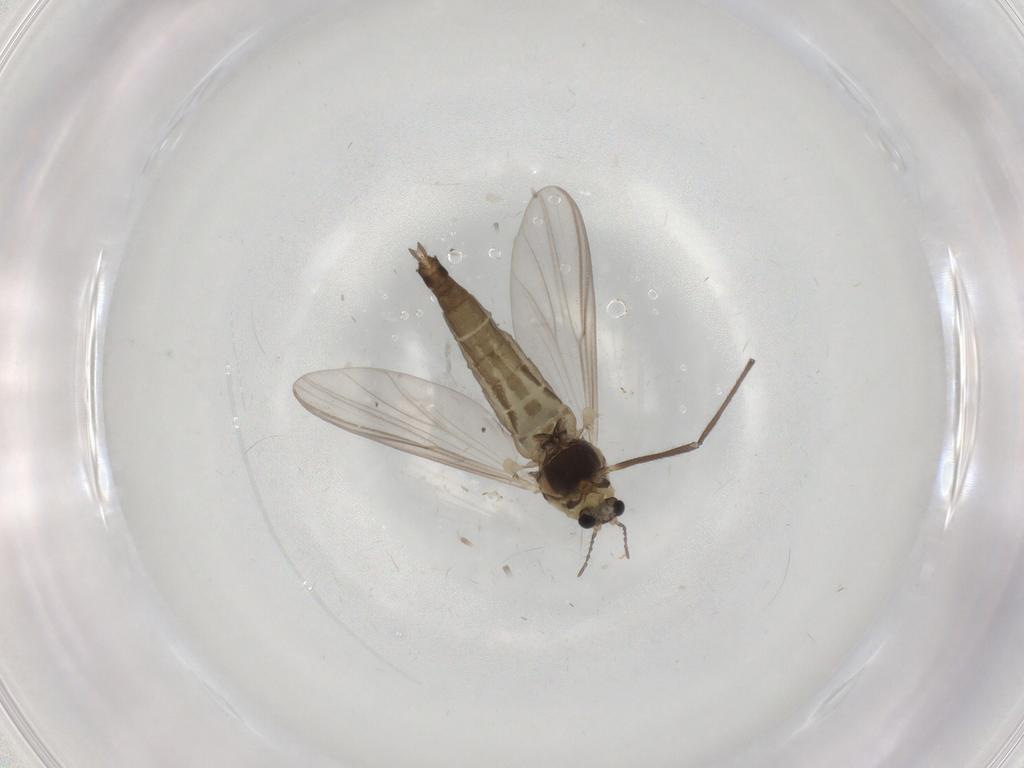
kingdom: Animalia
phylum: Arthropoda
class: Insecta
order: Diptera
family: Chironomidae
